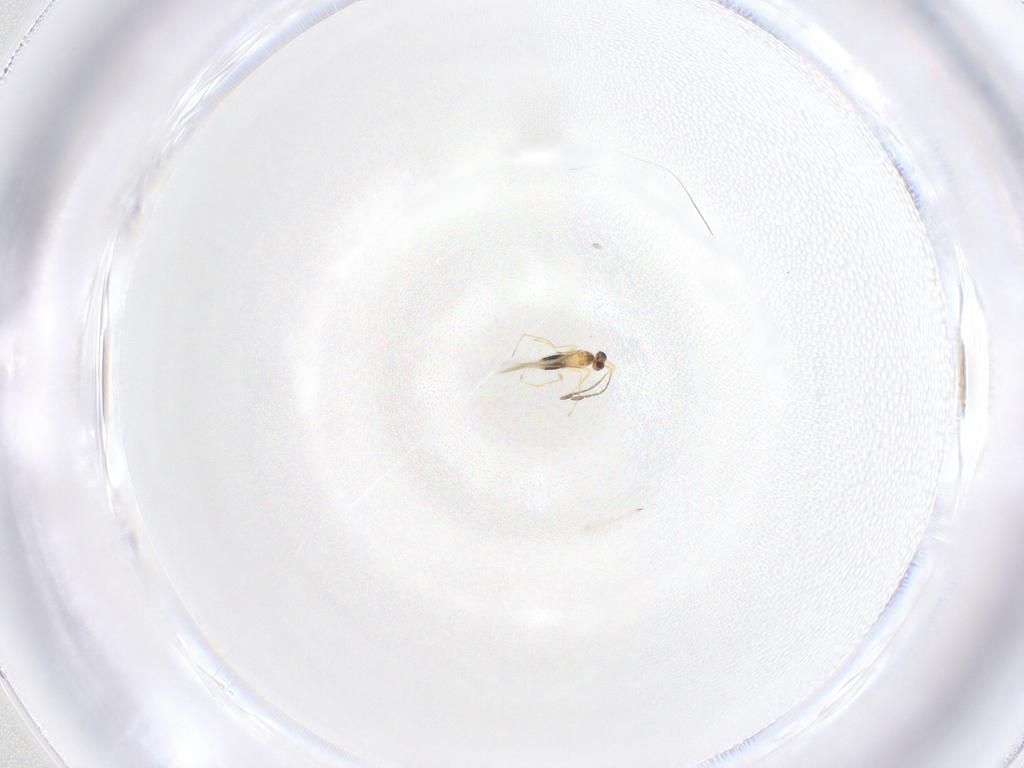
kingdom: Animalia
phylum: Arthropoda
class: Insecta
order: Hymenoptera
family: Mymaridae
